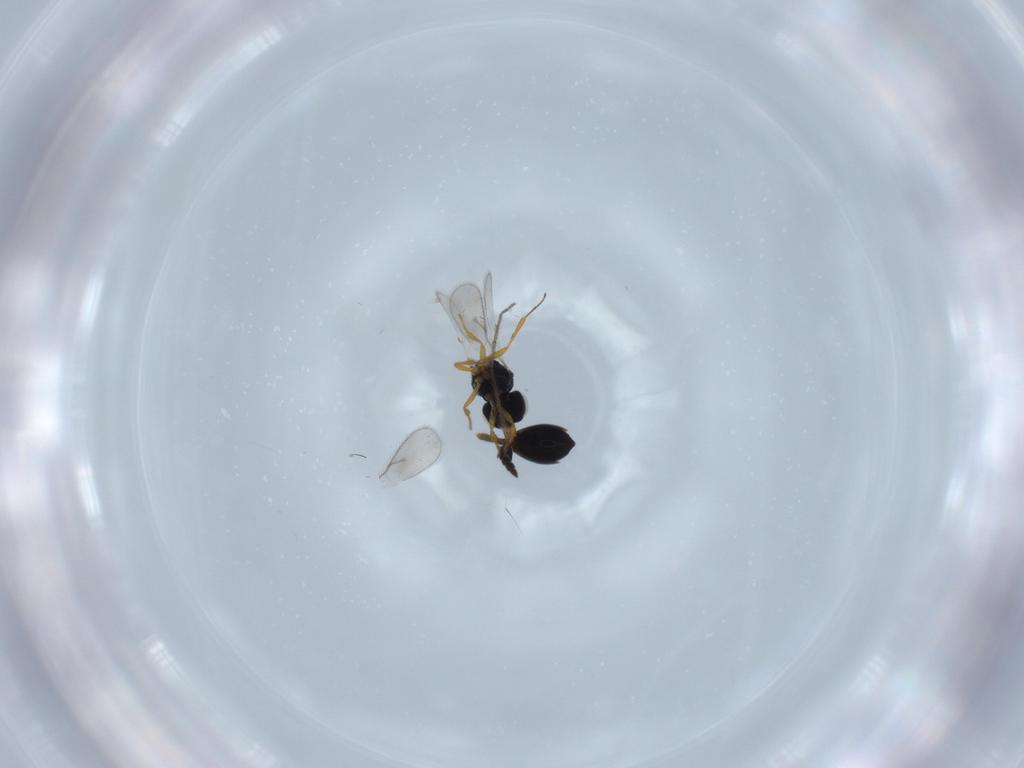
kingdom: Animalia
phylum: Arthropoda
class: Insecta
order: Hymenoptera
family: Scelionidae
